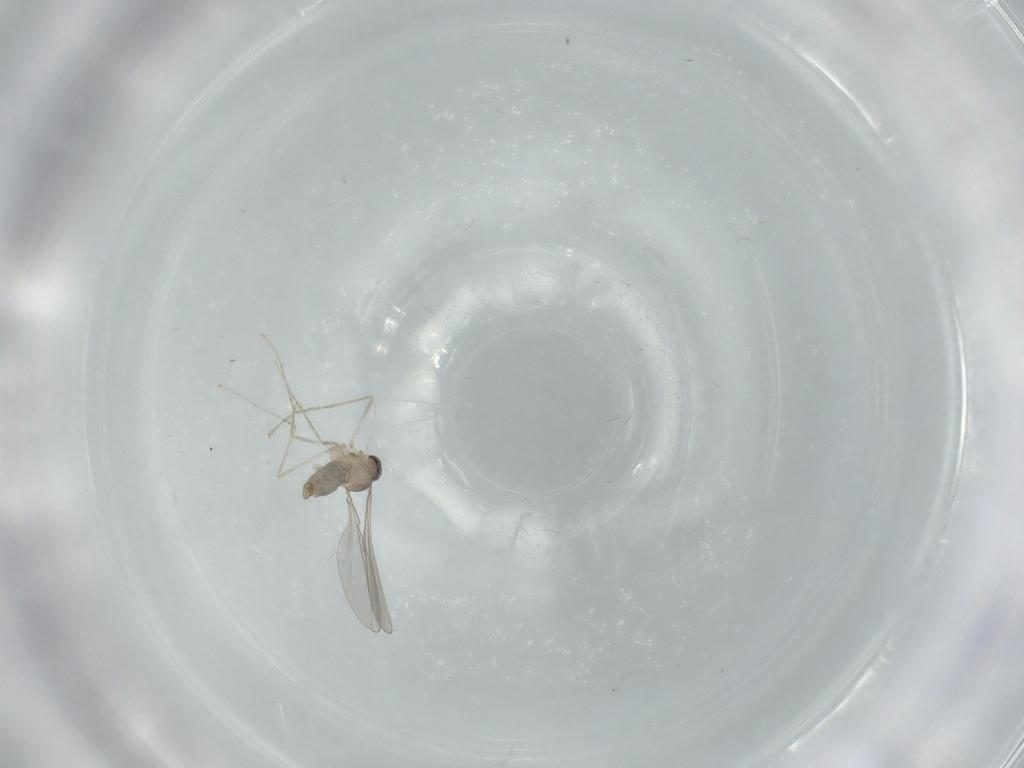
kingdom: Animalia
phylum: Arthropoda
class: Insecta
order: Diptera
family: Cecidomyiidae
